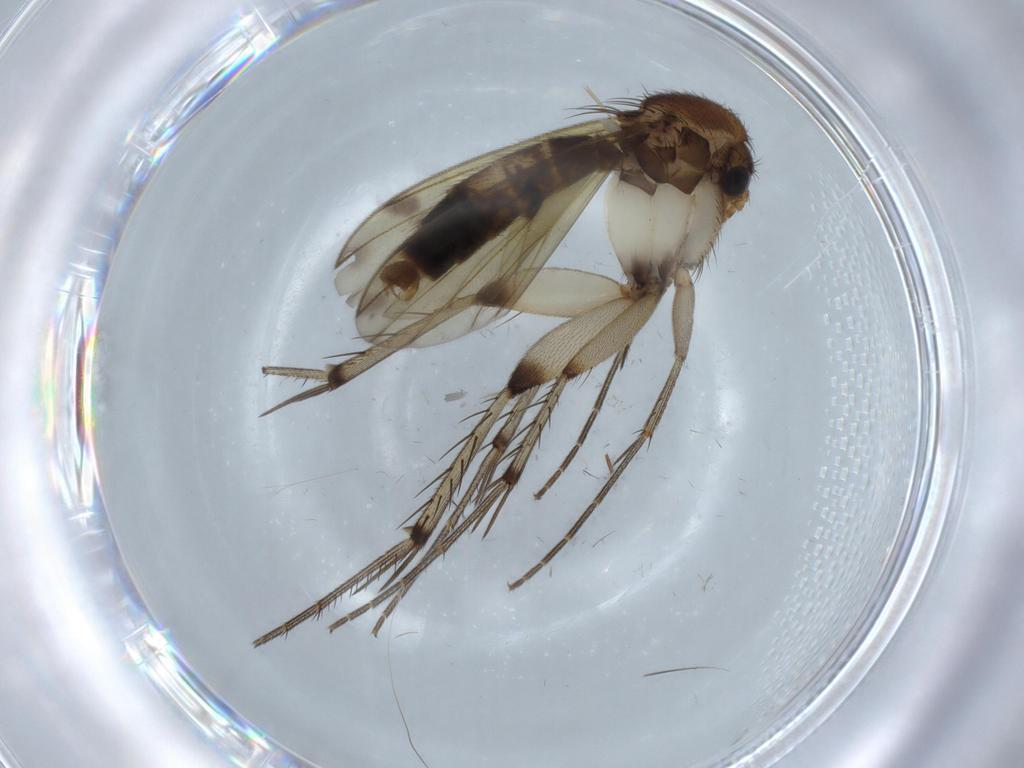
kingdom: Animalia
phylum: Arthropoda
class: Insecta
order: Diptera
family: Mycetophilidae
